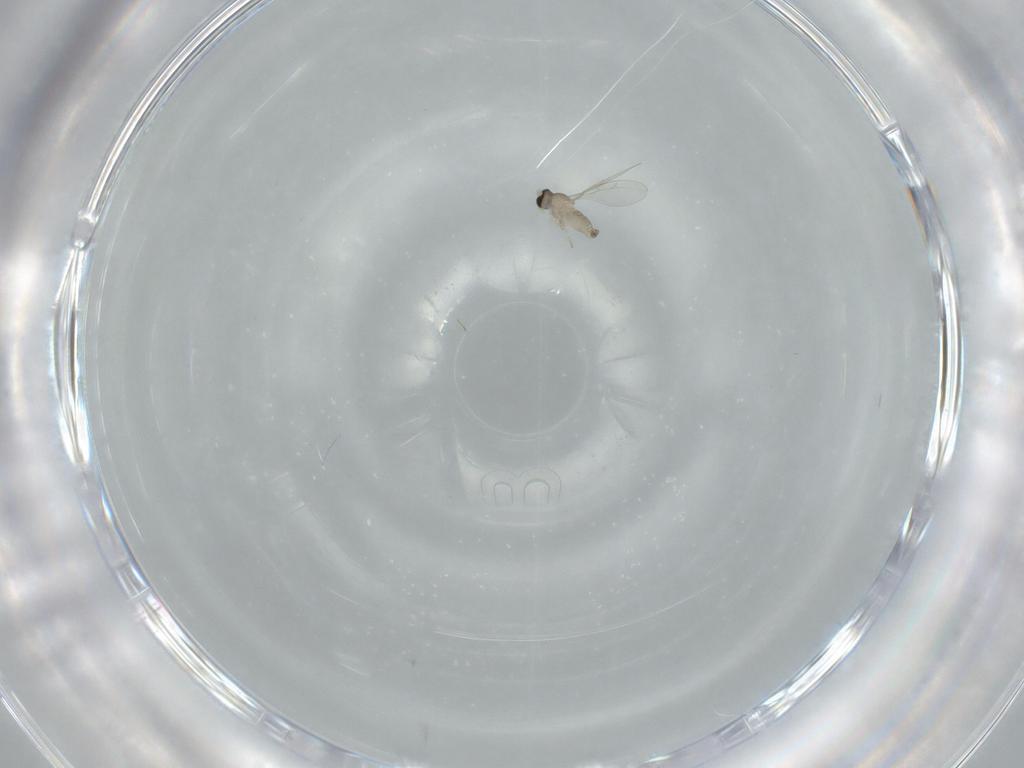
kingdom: Animalia
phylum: Arthropoda
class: Insecta
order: Diptera
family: Cecidomyiidae
